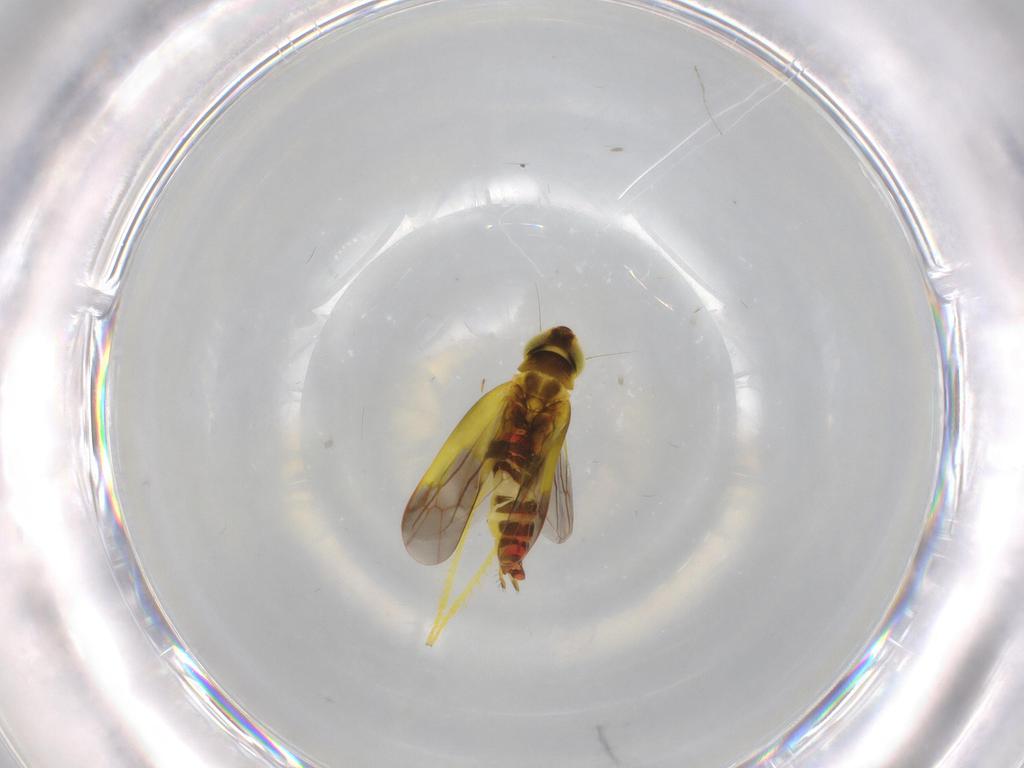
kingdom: Animalia
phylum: Arthropoda
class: Insecta
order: Hemiptera
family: Cicadellidae
